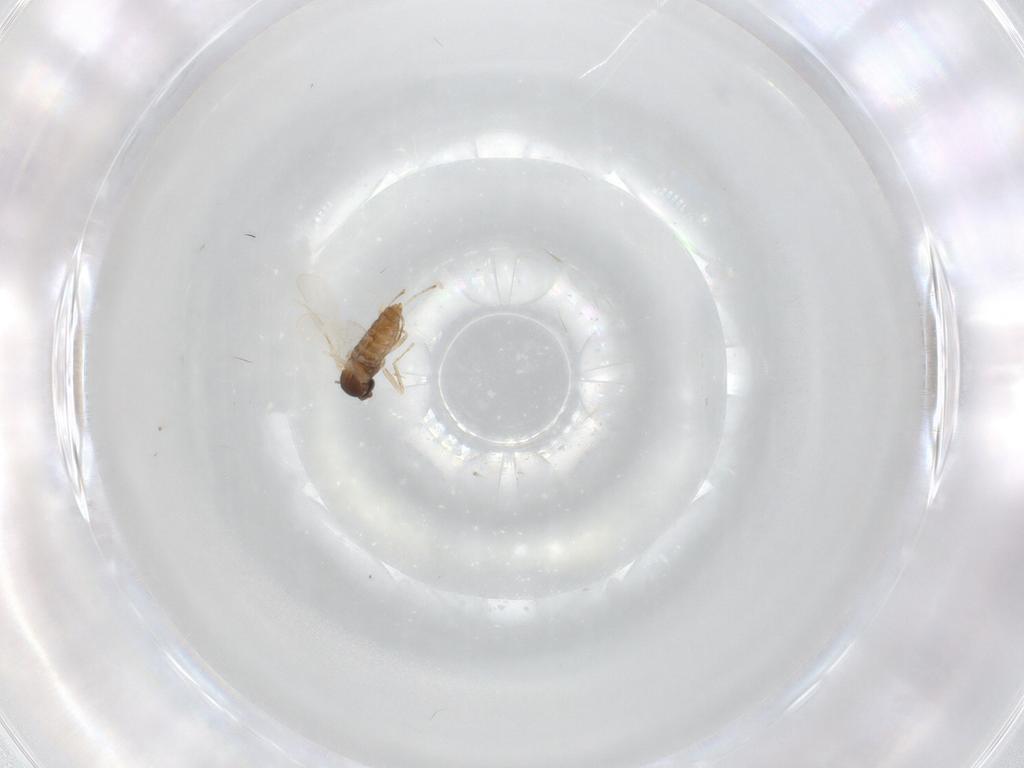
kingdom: Animalia
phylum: Arthropoda
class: Insecta
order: Diptera
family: Cecidomyiidae
